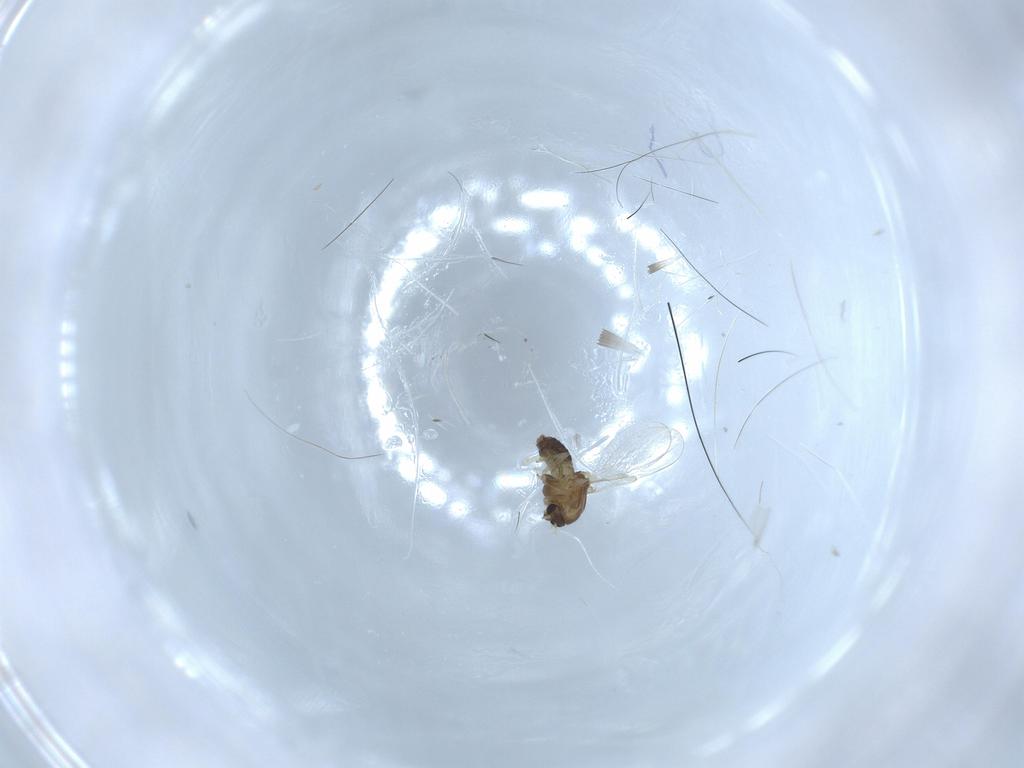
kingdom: Animalia
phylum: Arthropoda
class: Insecta
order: Diptera
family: Chironomidae
